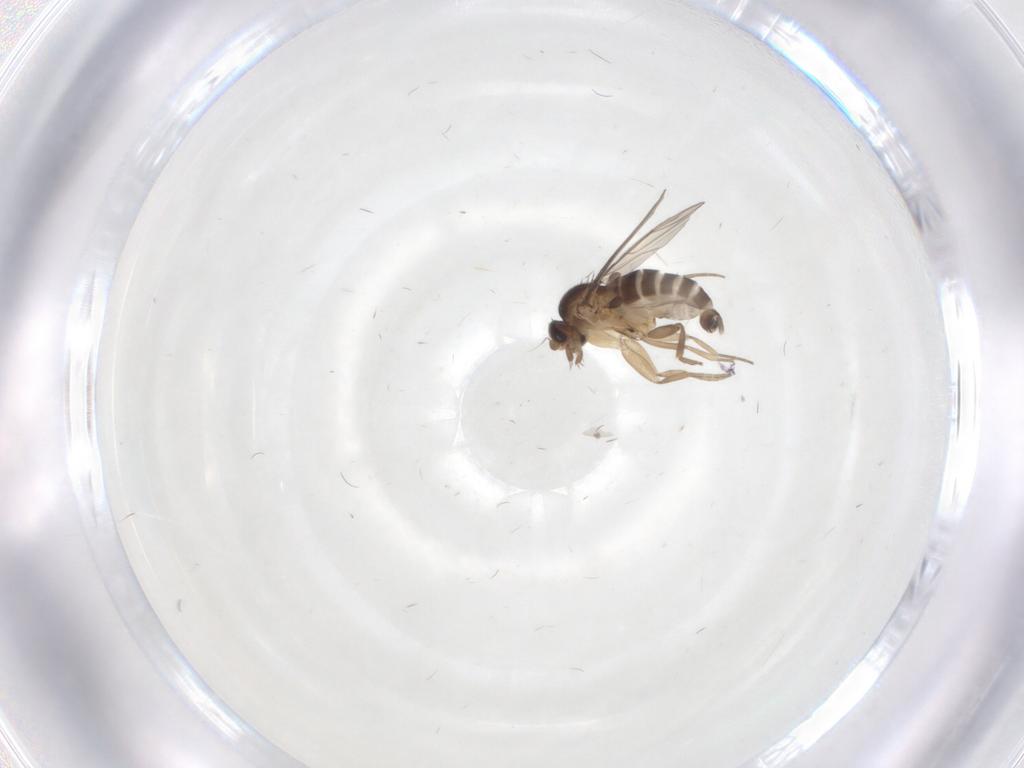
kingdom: Animalia
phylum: Arthropoda
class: Insecta
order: Diptera
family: Phoridae
